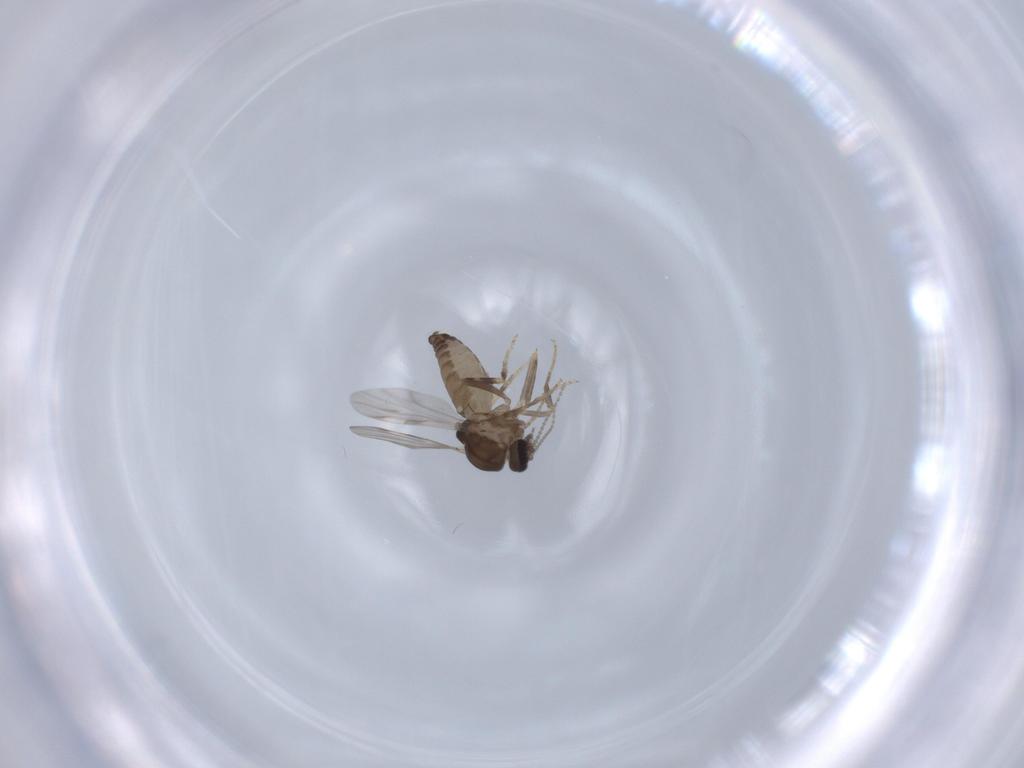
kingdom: Animalia
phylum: Arthropoda
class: Insecta
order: Diptera
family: Ceratopogonidae
